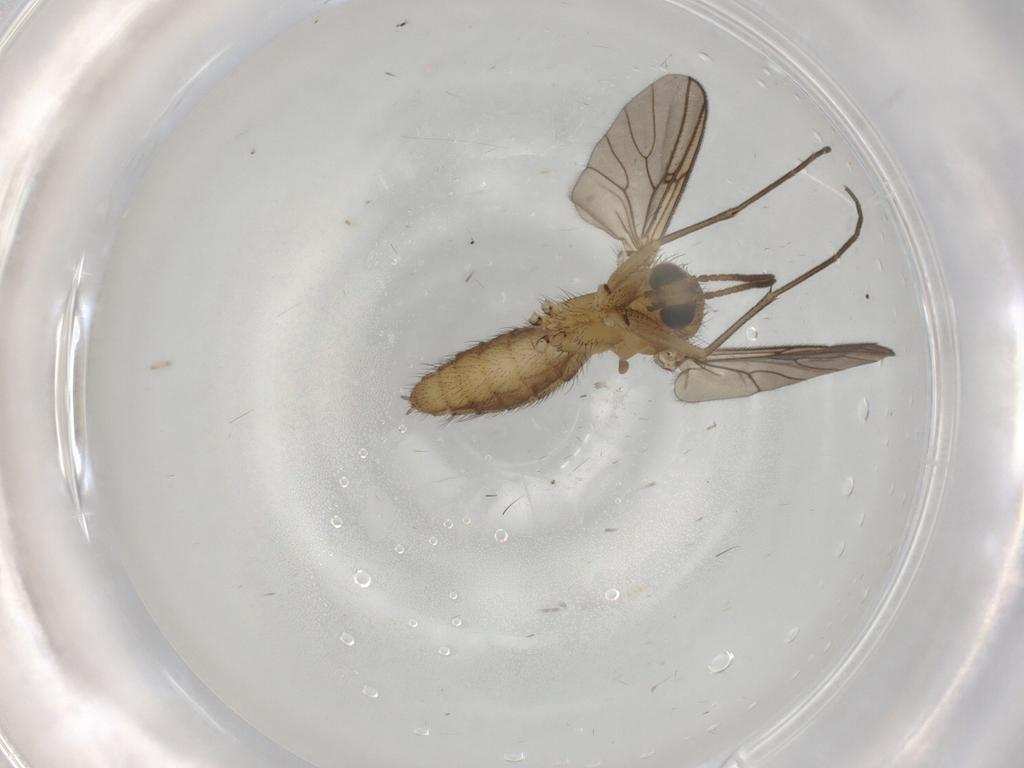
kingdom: Animalia
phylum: Arthropoda
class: Insecta
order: Diptera
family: Mycetophilidae
